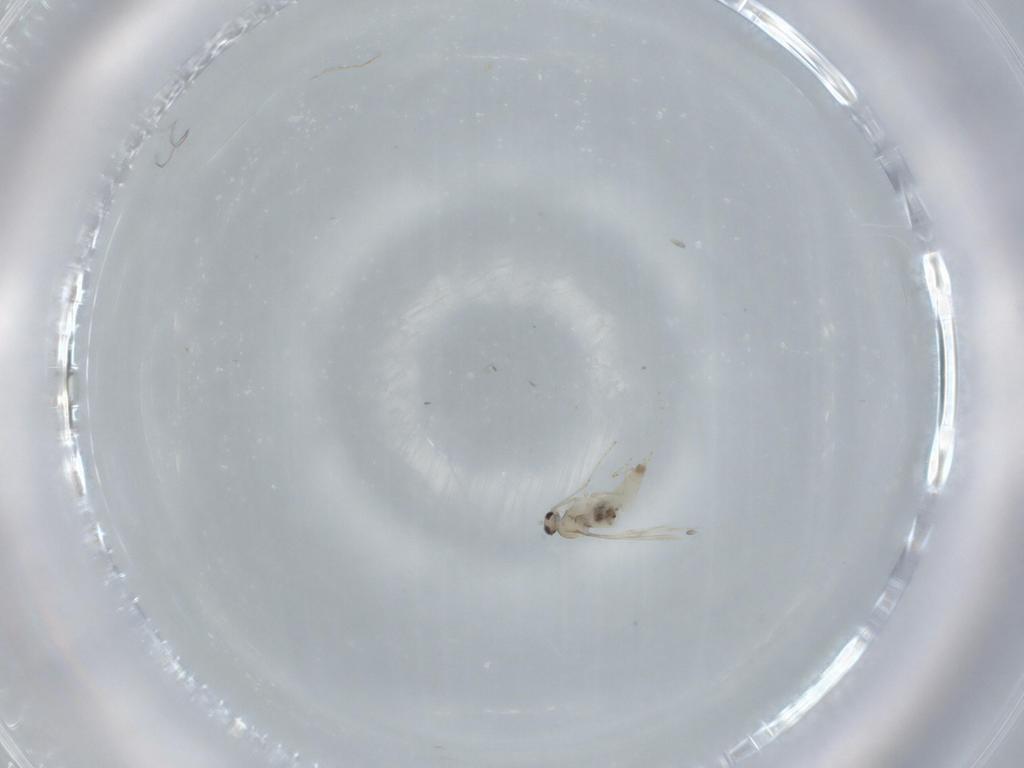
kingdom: Animalia
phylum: Arthropoda
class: Insecta
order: Diptera
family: Cecidomyiidae
